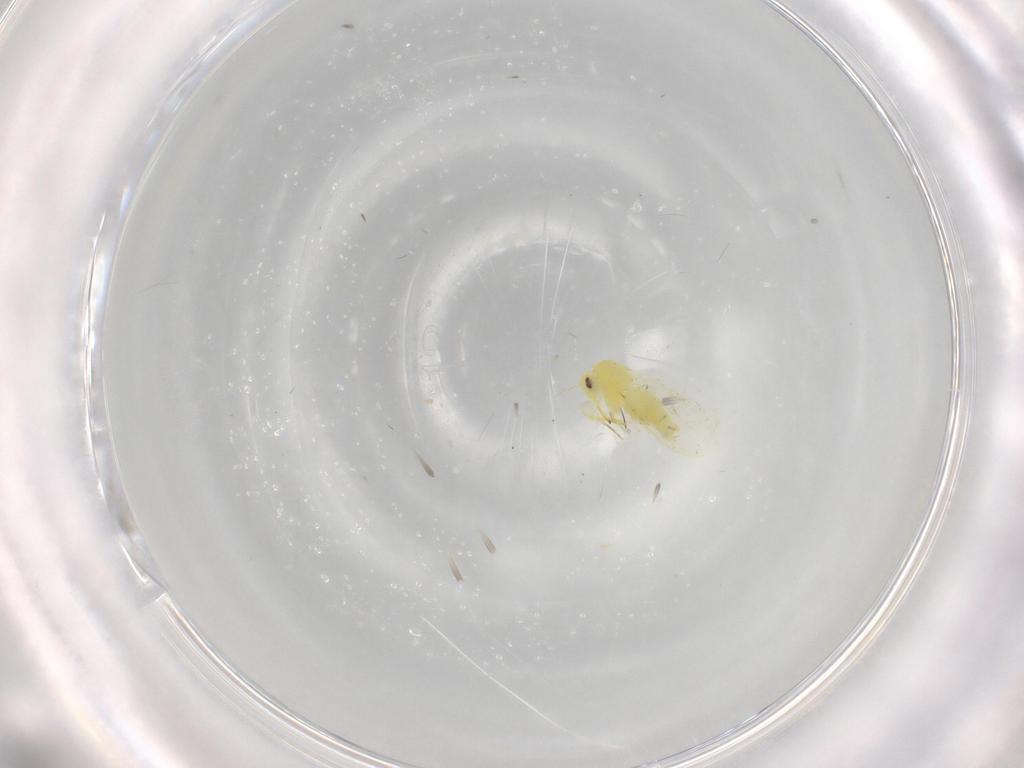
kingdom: Animalia
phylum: Arthropoda
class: Insecta
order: Hemiptera
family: Aleyrodidae
